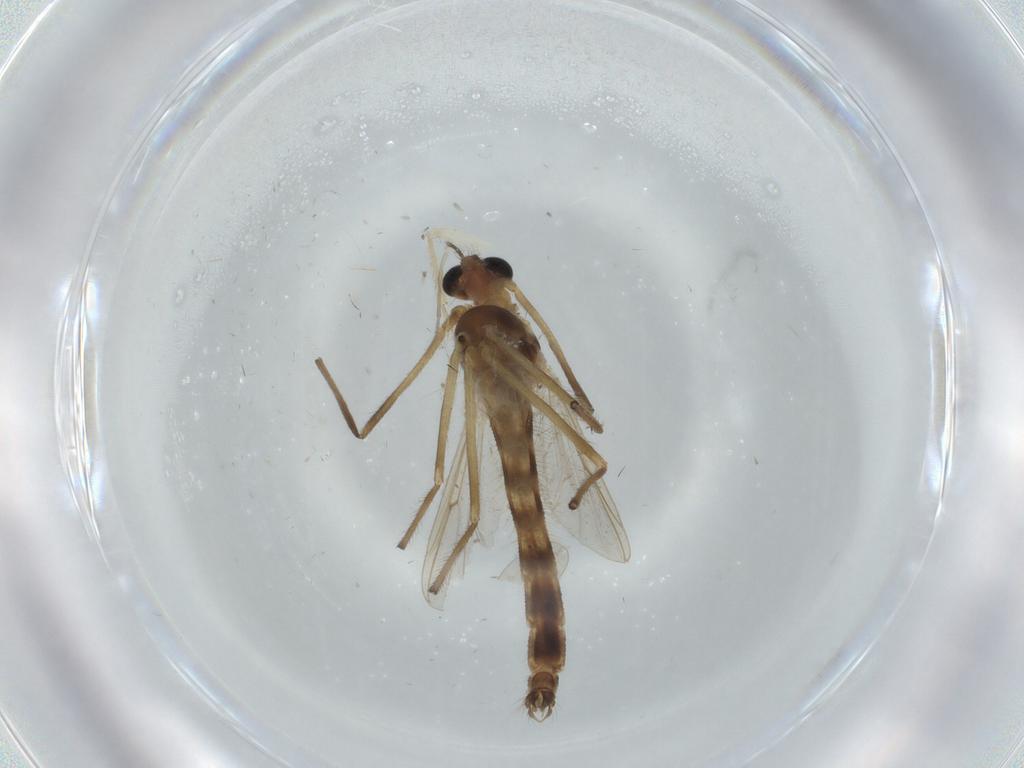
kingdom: Animalia
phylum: Arthropoda
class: Insecta
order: Diptera
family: Chironomidae
